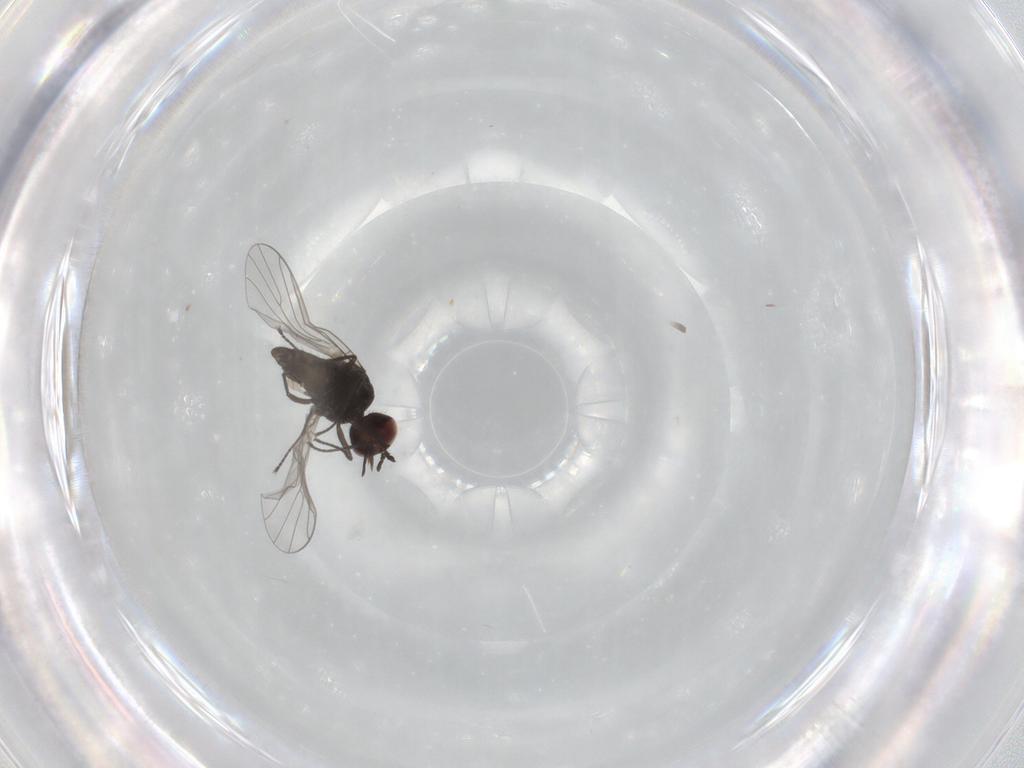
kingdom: Animalia
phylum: Arthropoda
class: Insecta
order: Diptera
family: Bombyliidae
